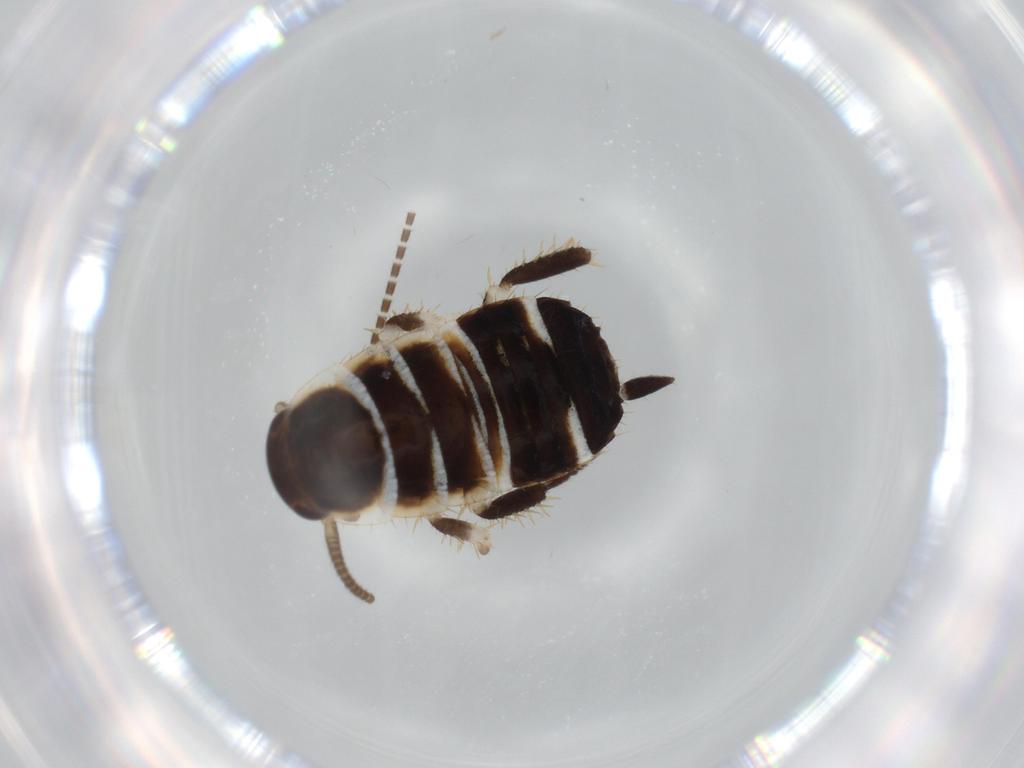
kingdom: Animalia
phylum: Arthropoda
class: Insecta
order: Blattodea
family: Ectobiidae
